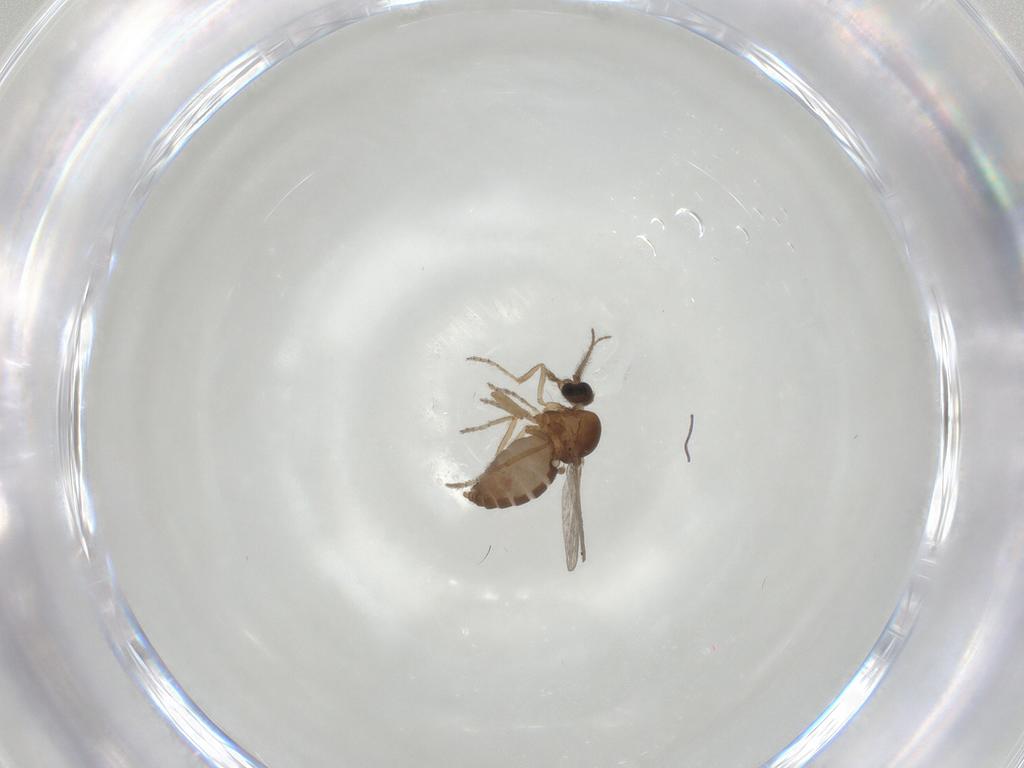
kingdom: Animalia
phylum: Arthropoda
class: Insecta
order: Diptera
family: Ceratopogonidae
